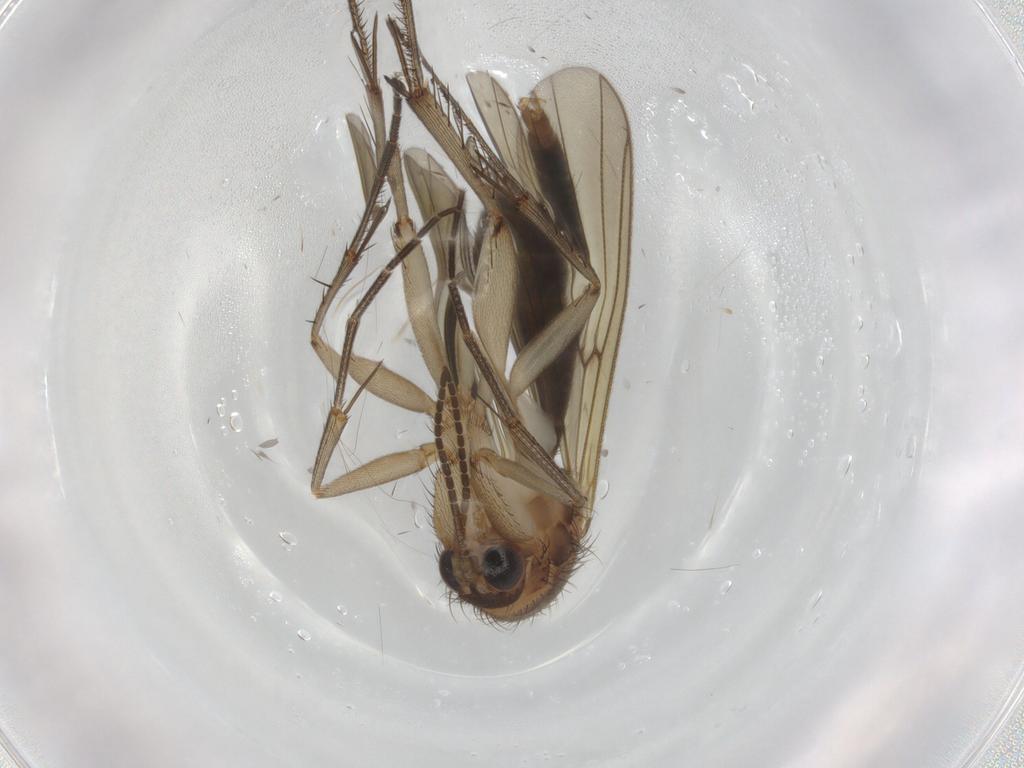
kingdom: Animalia
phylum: Arthropoda
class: Insecta
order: Diptera
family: Mycetophilidae
